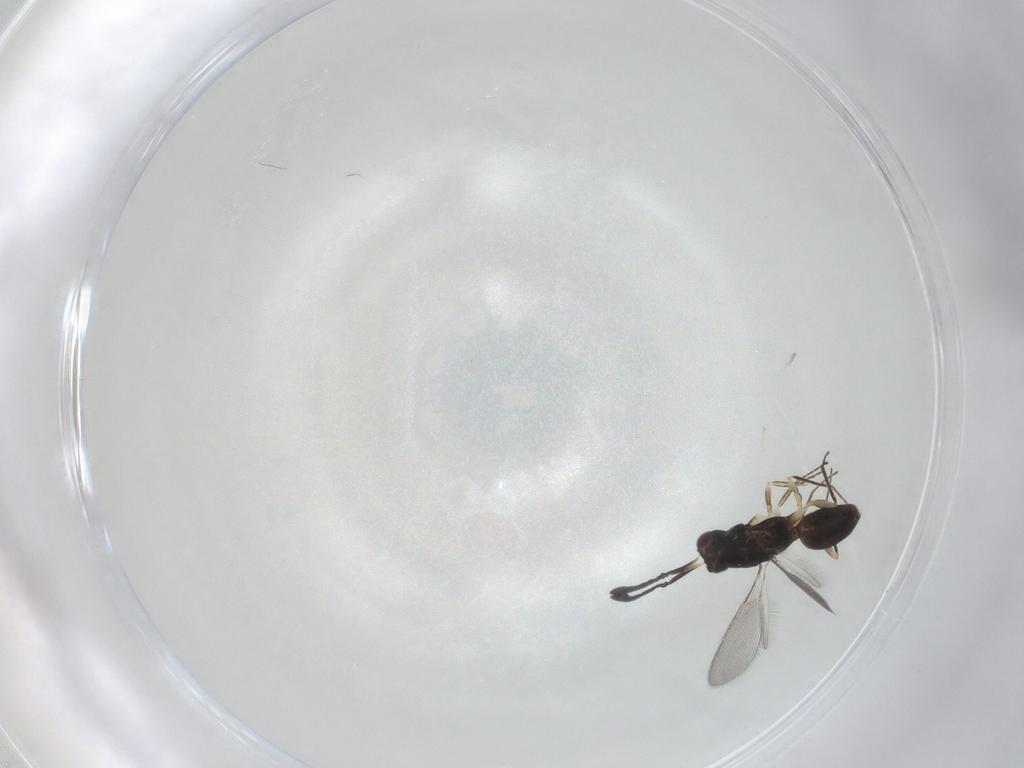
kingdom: Animalia
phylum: Arthropoda
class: Insecta
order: Hymenoptera
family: Mymaridae
